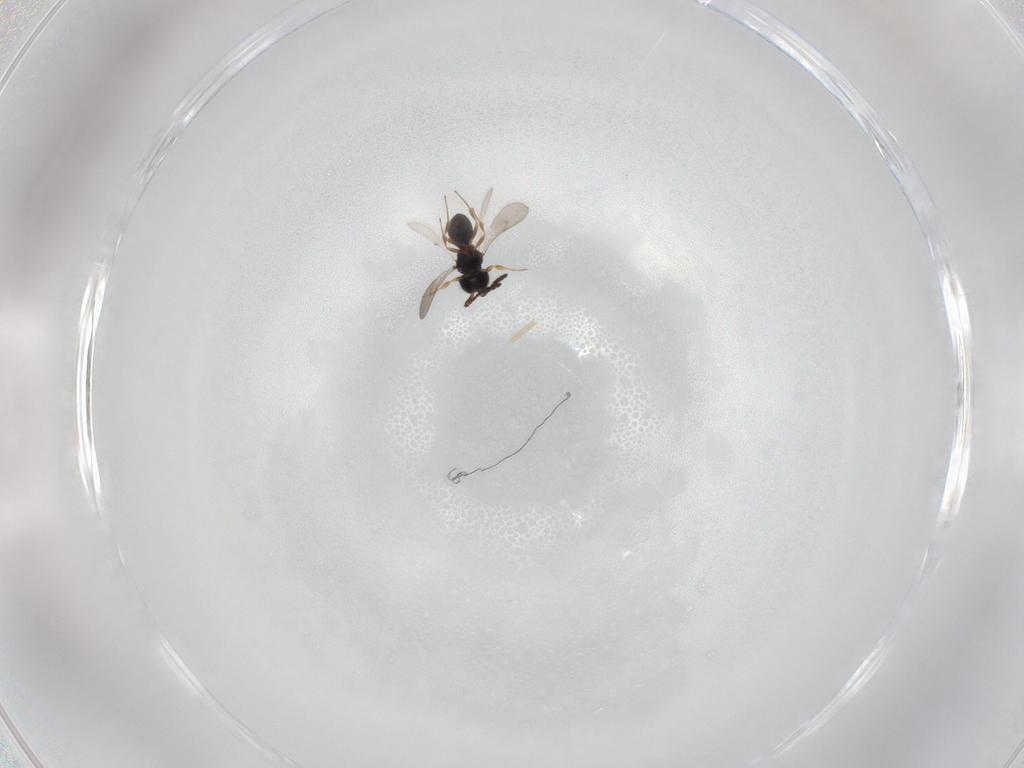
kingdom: Animalia
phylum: Arthropoda
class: Insecta
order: Hymenoptera
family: Scelionidae
